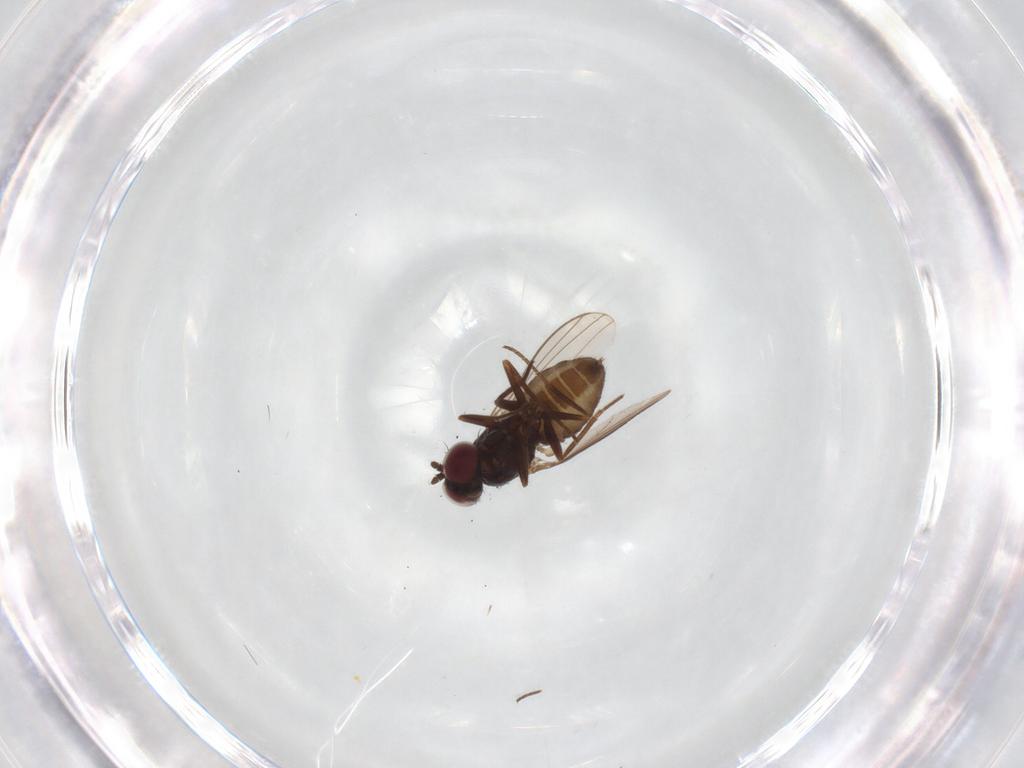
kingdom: Animalia
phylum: Arthropoda
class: Insecta
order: Diptera
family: Dolichopodidae
